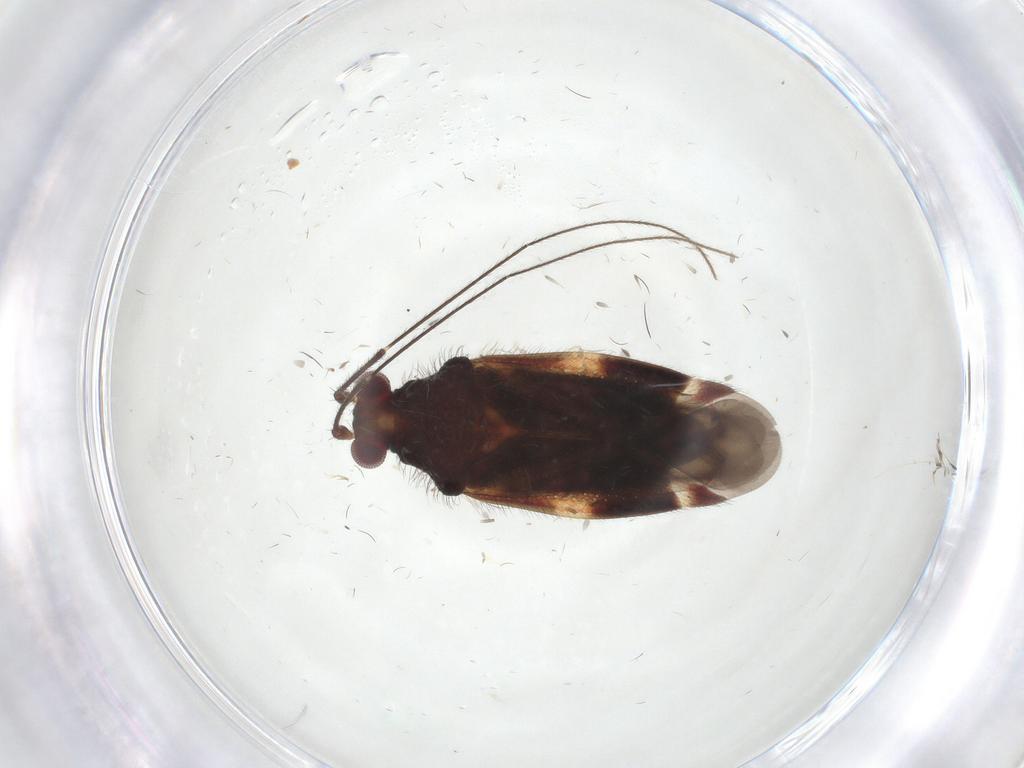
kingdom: Animalia
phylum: Arthropoda
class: Insecta
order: Hemiptera
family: Miridae
